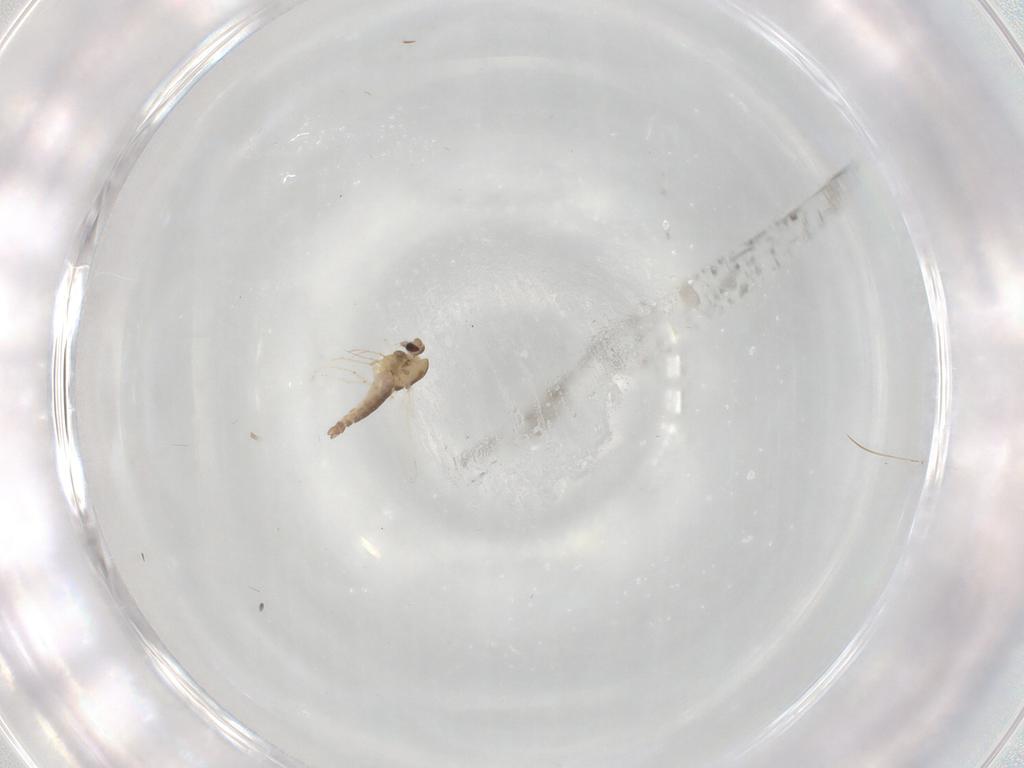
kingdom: Animalia
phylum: Arthropoda
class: Insecta
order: Diptera
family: Chironomidae
